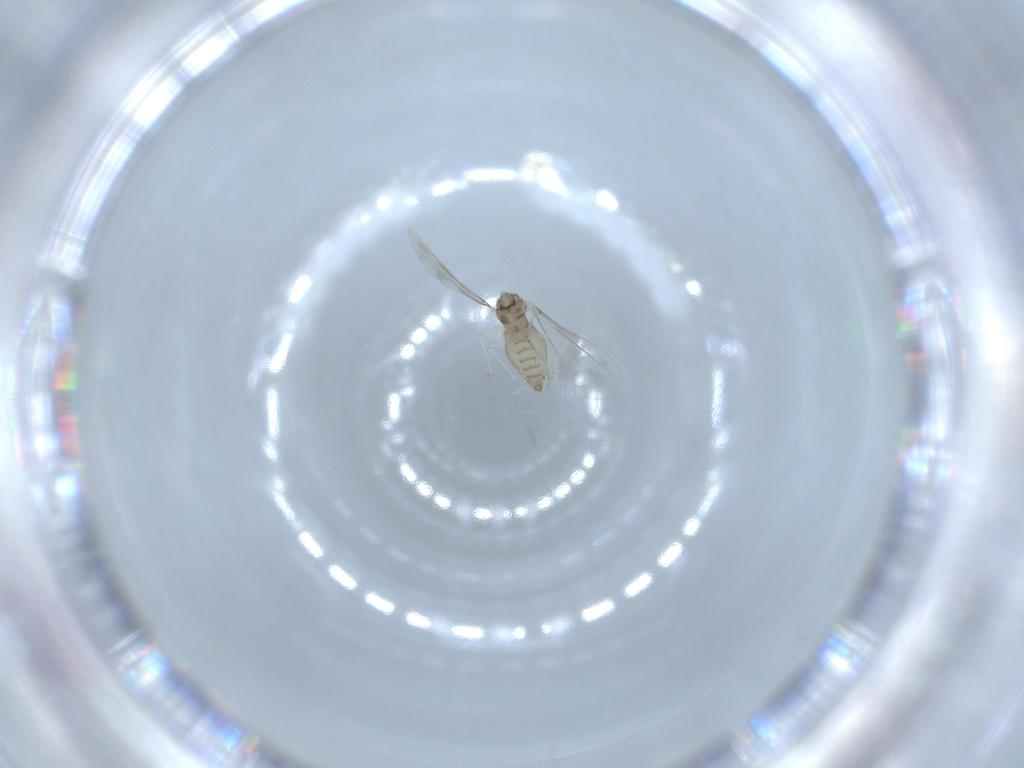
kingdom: Animalia
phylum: Arthropoda
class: Insecta
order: Diptera
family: Cecidomyiidae
